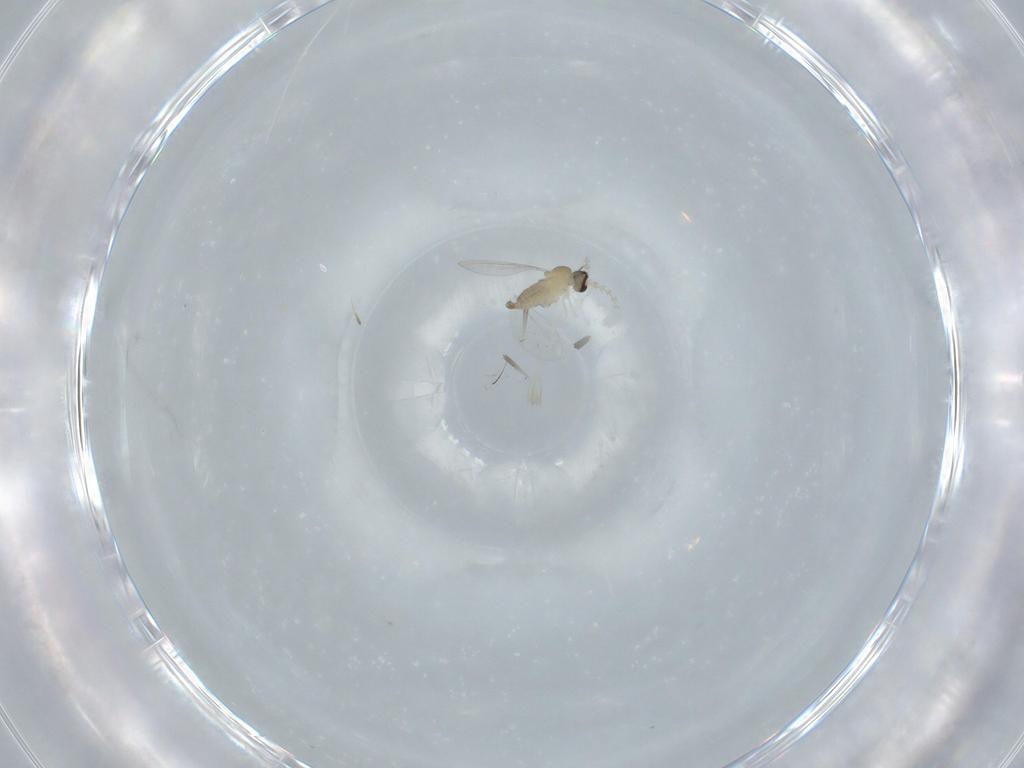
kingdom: Animalia
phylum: Arthropoda
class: Insecta
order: Diptera
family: Cecidomyiidae
